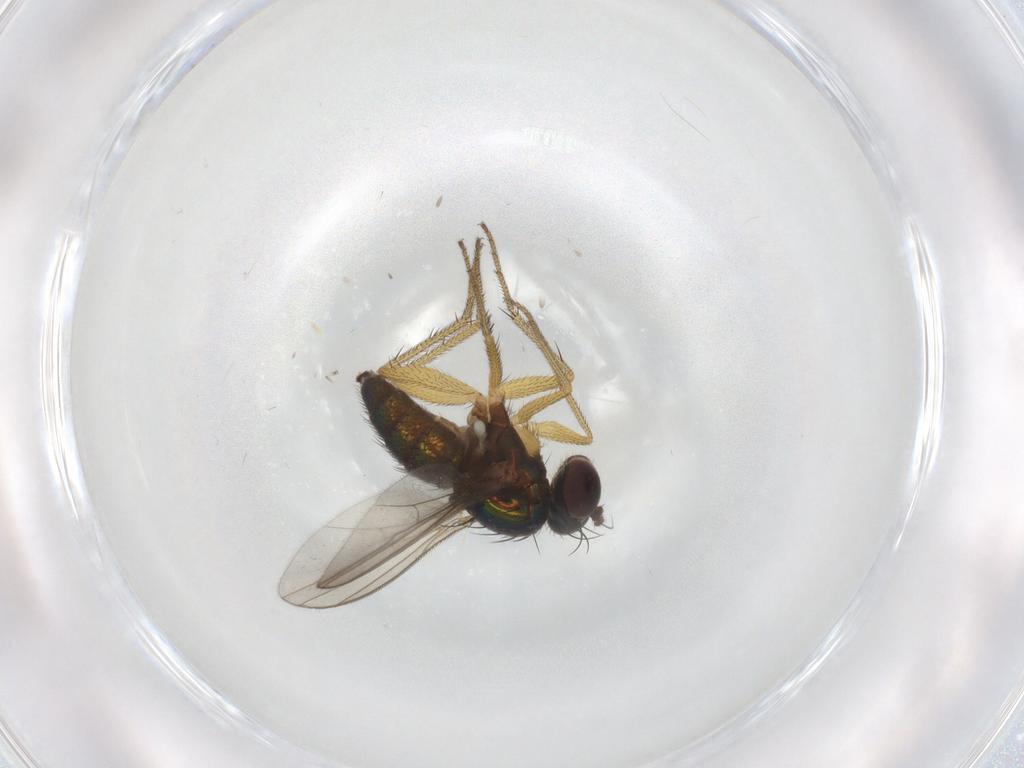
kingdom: Animalia
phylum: Arthropoda
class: Insecta
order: Diptera
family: Dolichopodidae
